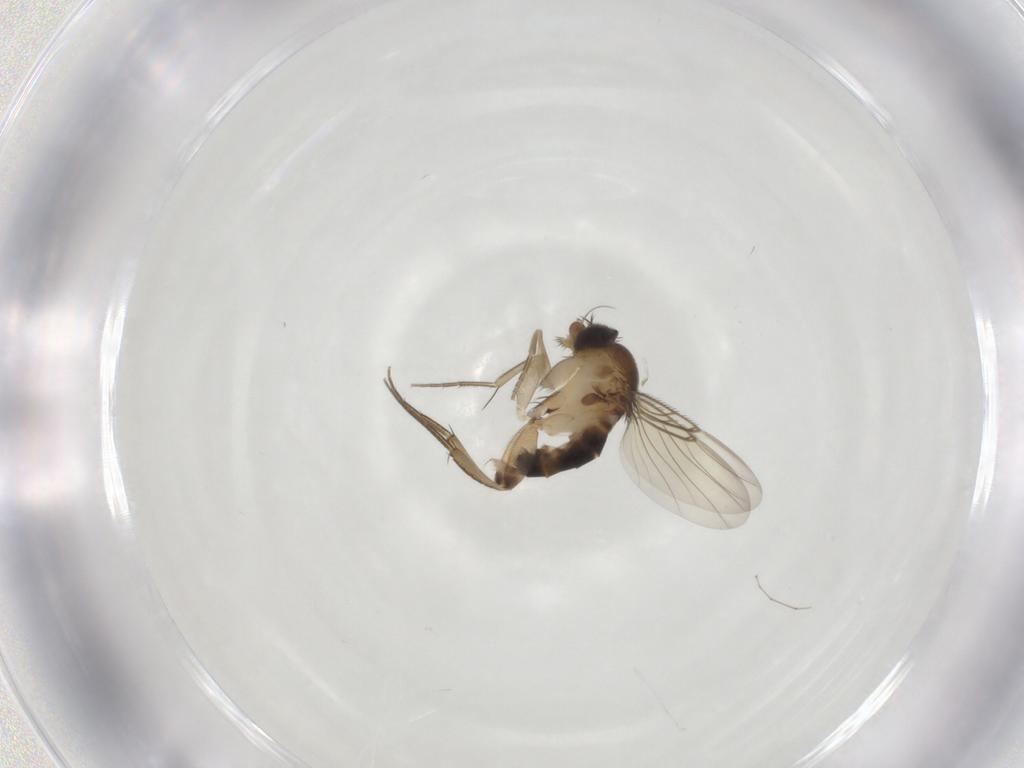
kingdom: Animalia
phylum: Arthropoda
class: Insecta
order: Diptera
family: Phoridae
